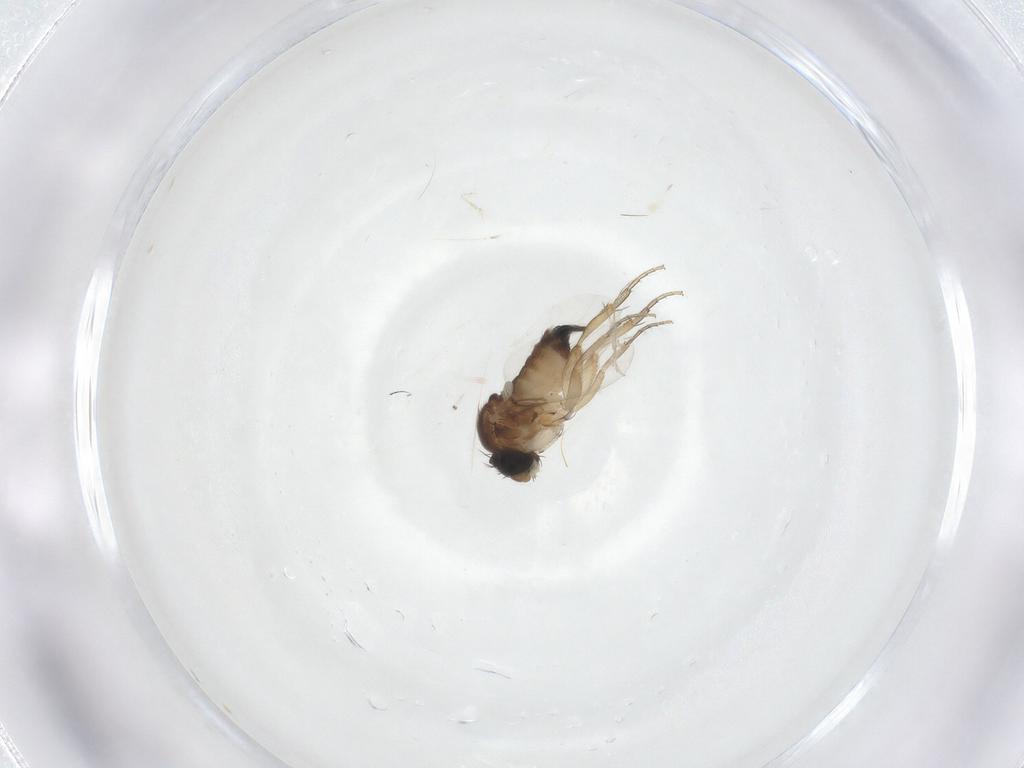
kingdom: Animalia
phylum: Arthropoda
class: Insecta
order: Diptera
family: Phoridae
